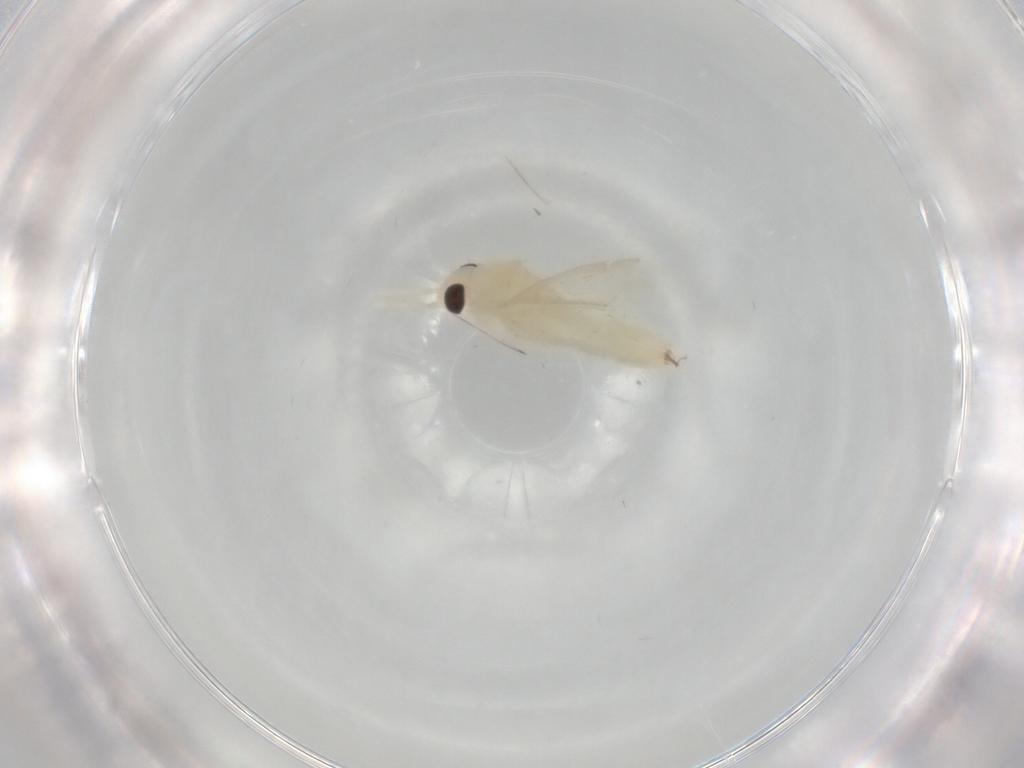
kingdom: Animalia
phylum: Arthropoda
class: Insecta
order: Hemiptera
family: Miridae
